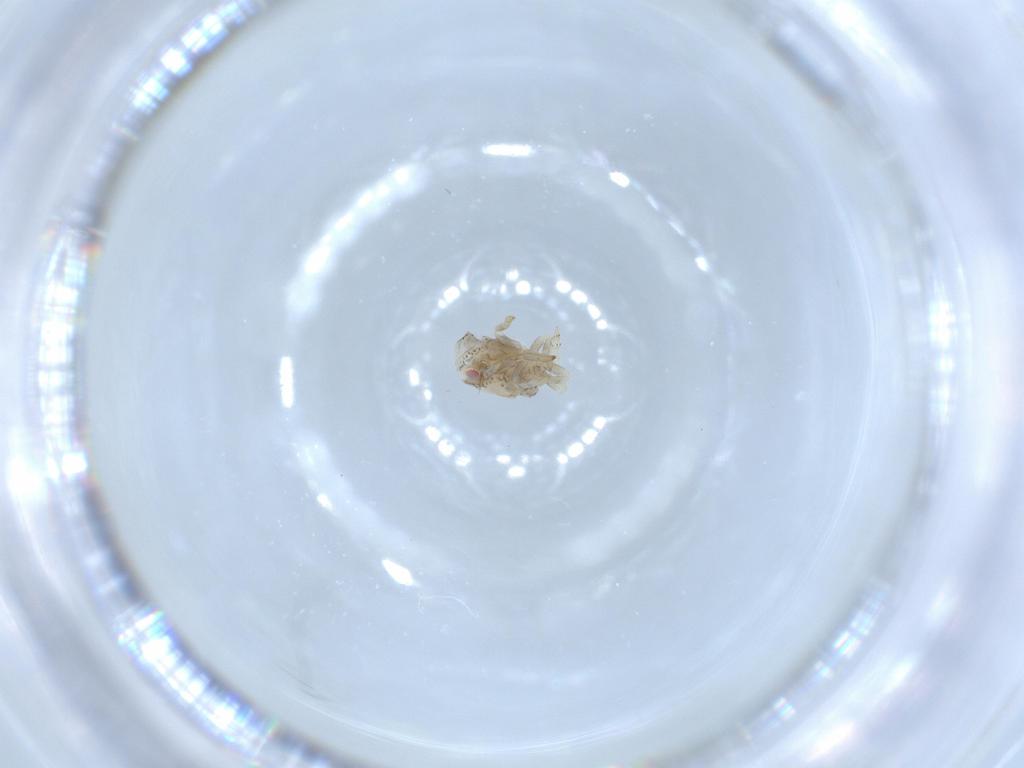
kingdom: Animalia
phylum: Arthropoda
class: Insecta
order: Hemiptera
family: Acanaloniidae
